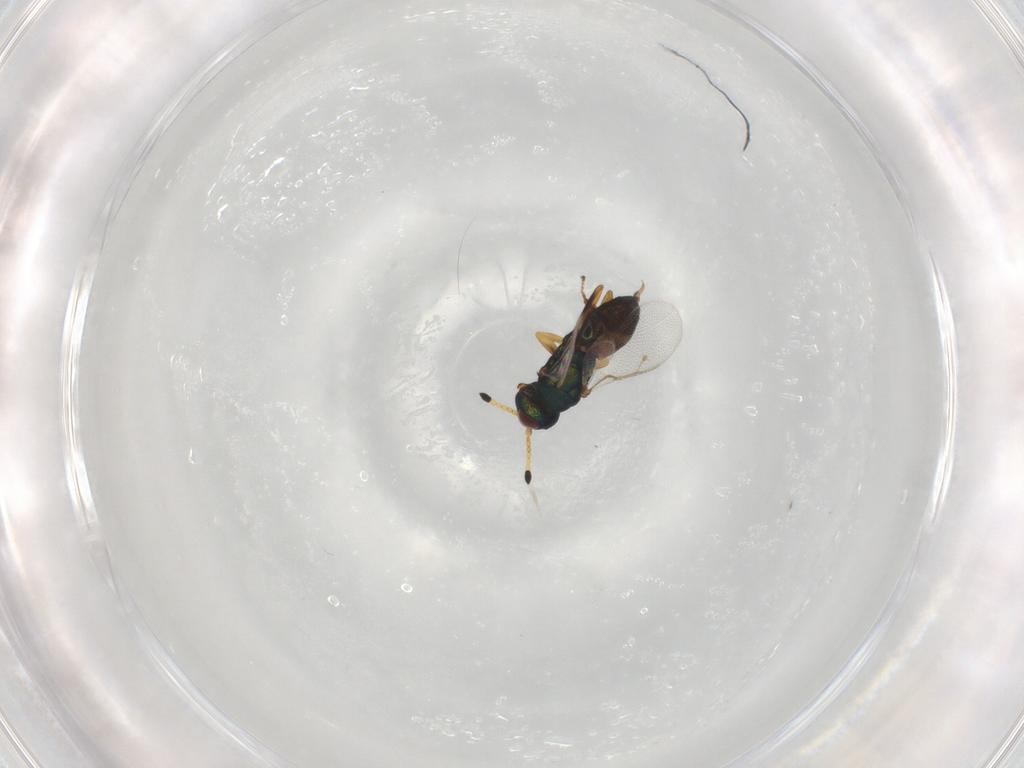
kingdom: Animalia
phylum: Arthropoda
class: Insecta
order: Hymenoptera
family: Pteromalidae
